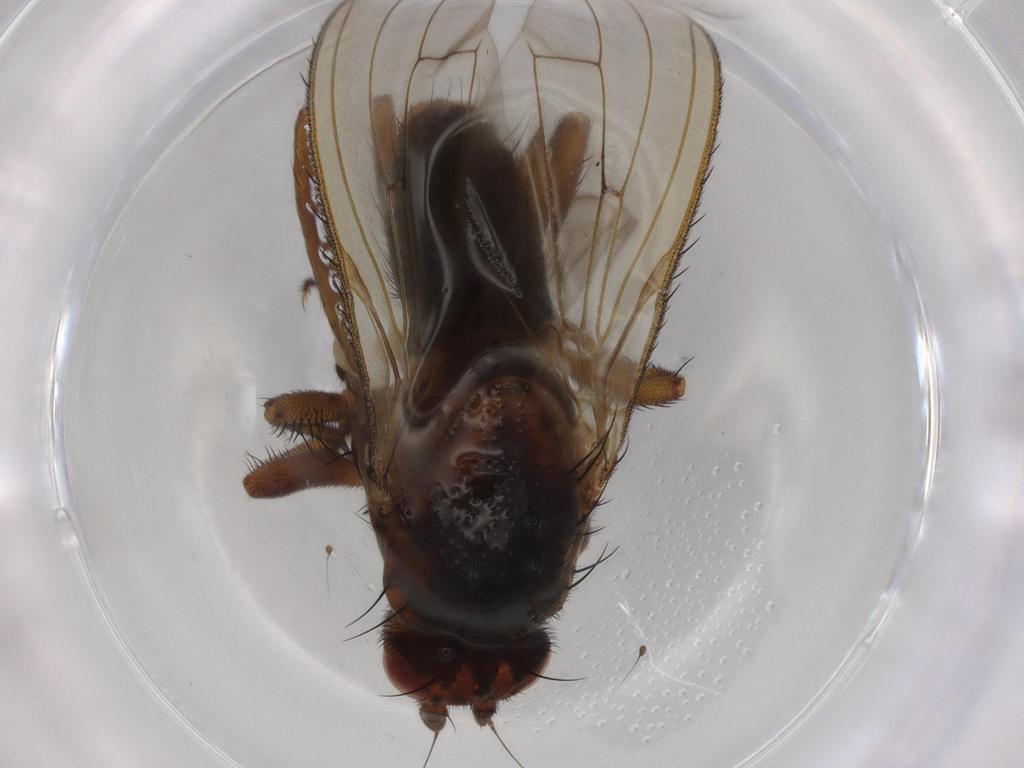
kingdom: Animalia
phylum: Arthropoda
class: Insecta
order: Diptera
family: Heleomyzidae
